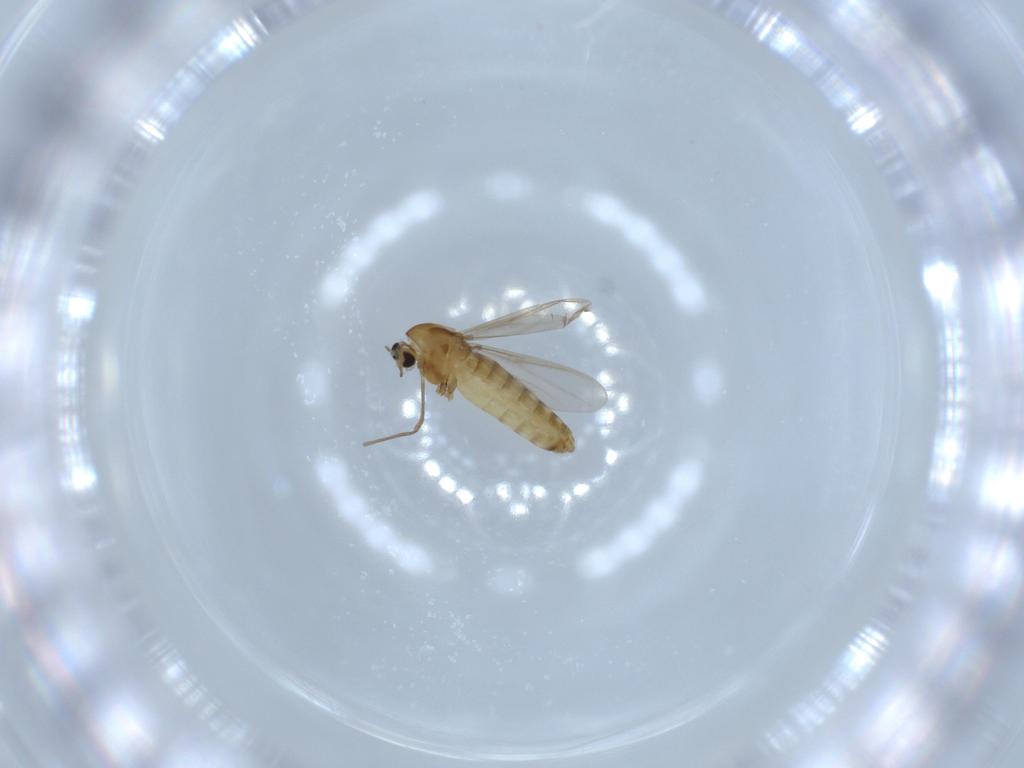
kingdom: Animalia
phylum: Arthropoda
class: Insecta
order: Diptera
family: Chironomidae
